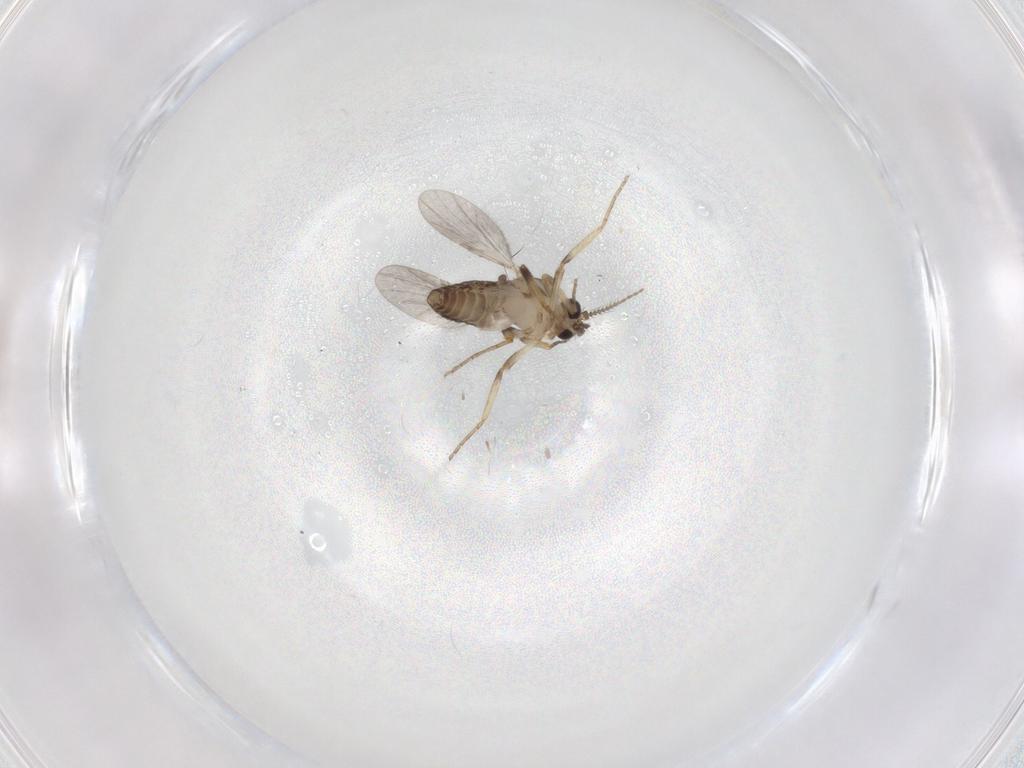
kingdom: Animalia
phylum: Arthropoda
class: Insecta
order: Diptera
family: Ceratopogonidae
